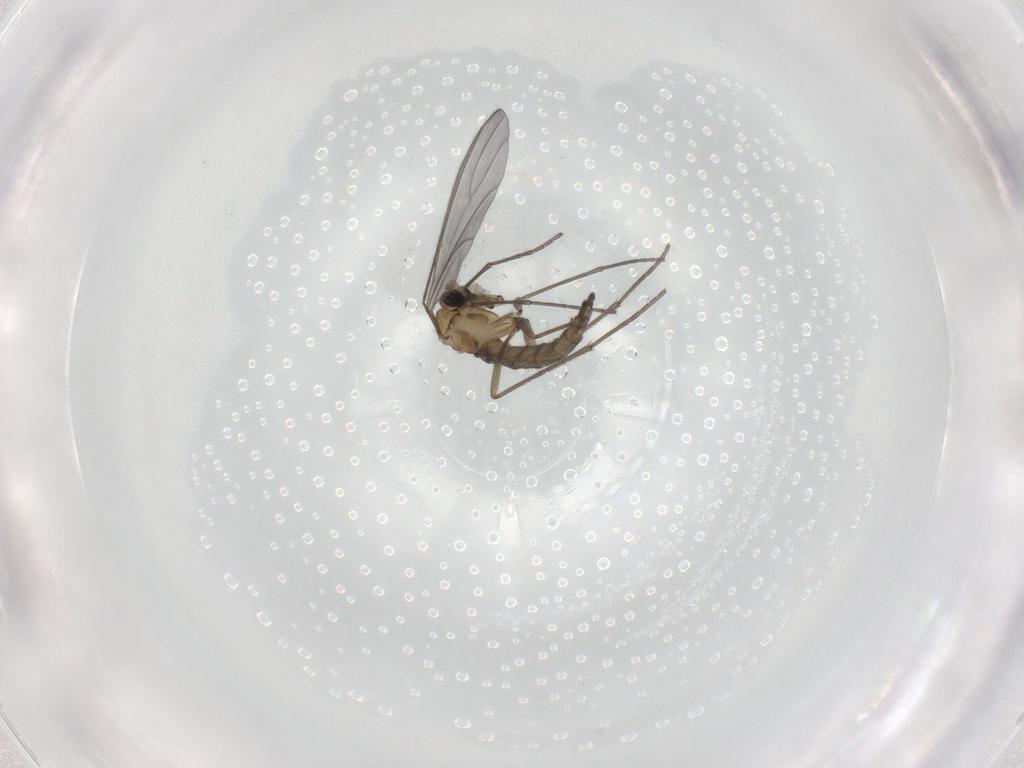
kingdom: Animalia
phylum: Arthropoda
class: Insecta
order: Diptera
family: Sciaridae
